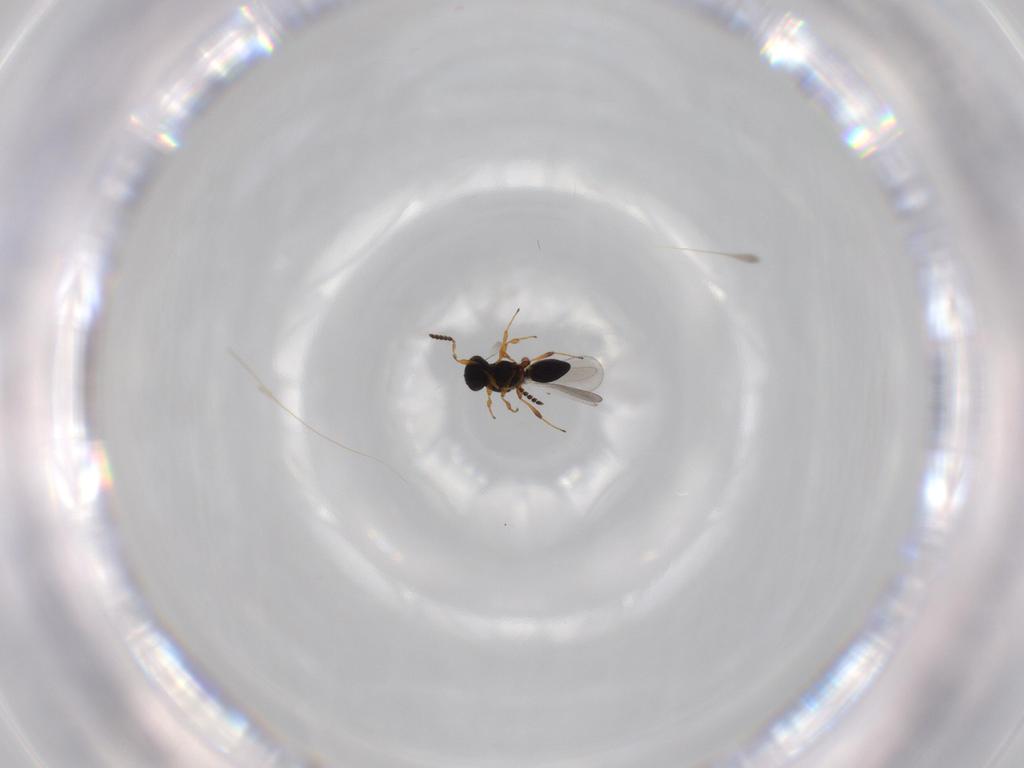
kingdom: Animalia
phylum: Arthropoda
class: Insecta
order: Hymenoptera
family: Platygastridae
